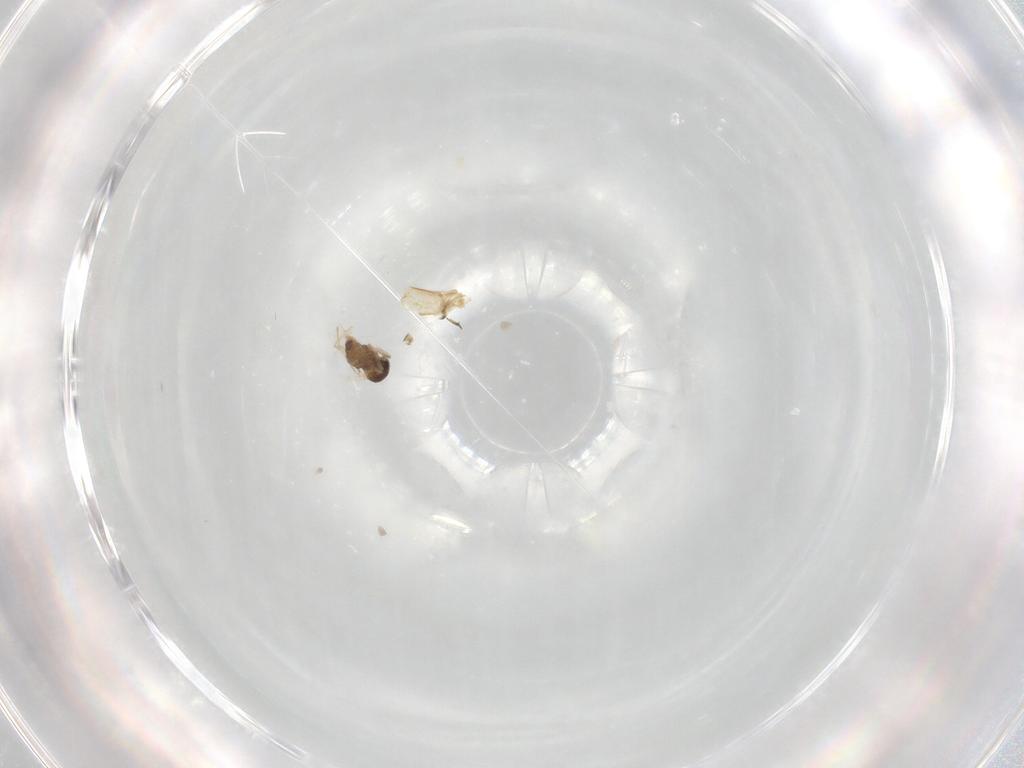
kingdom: Animalia
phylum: Arthropoda
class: Insecta
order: Diptera
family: Glossinidae
